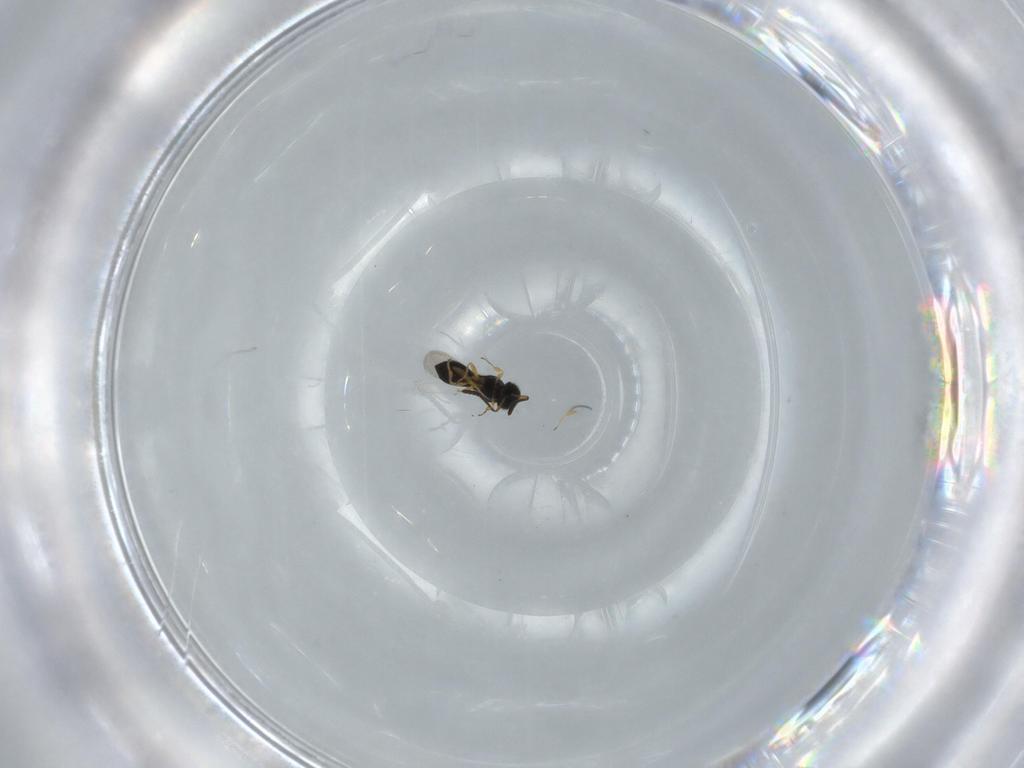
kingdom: Animalia
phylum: Arthropoda
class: Insecta
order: Hymenoptera
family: Scelionidae
